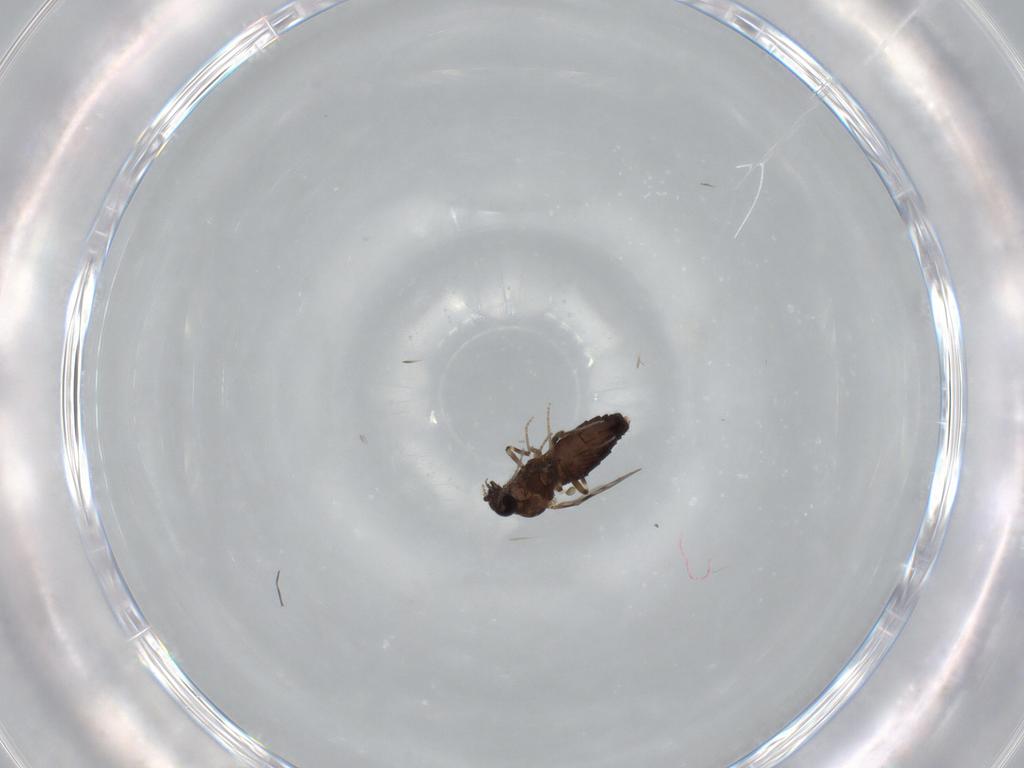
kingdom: Animalia
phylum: Arthropoda
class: Insecta
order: Diptera
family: Ceratopogonidae
